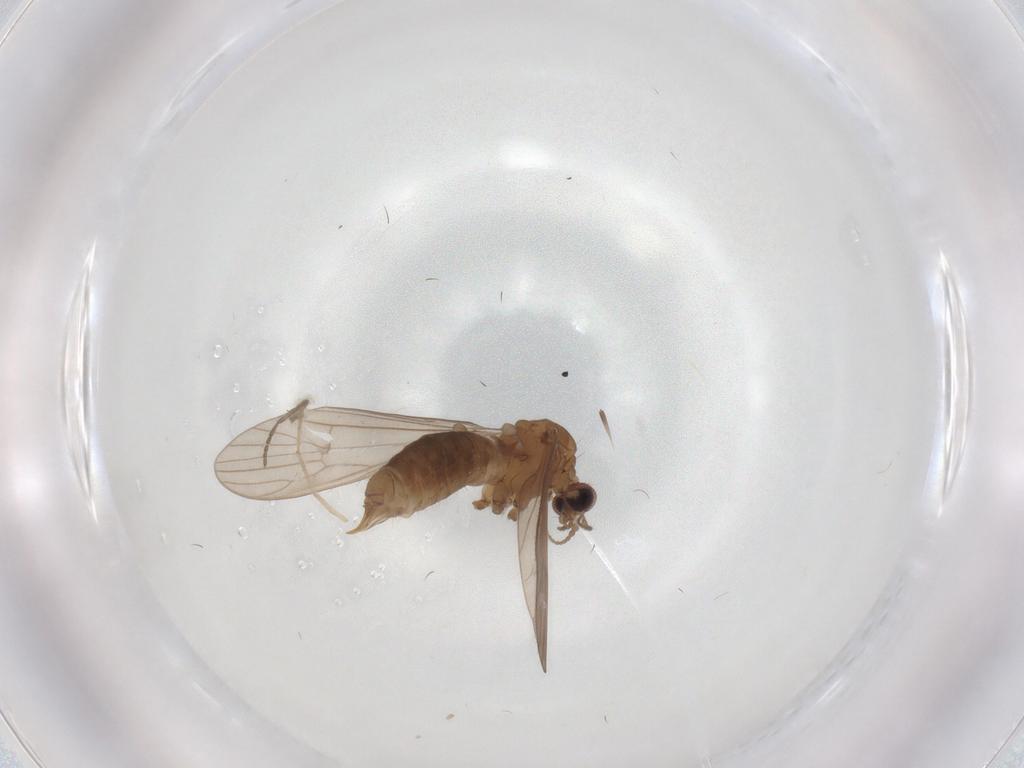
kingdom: Animalia
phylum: Arthropoda
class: Insecta
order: Diptera
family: Limoniidae
